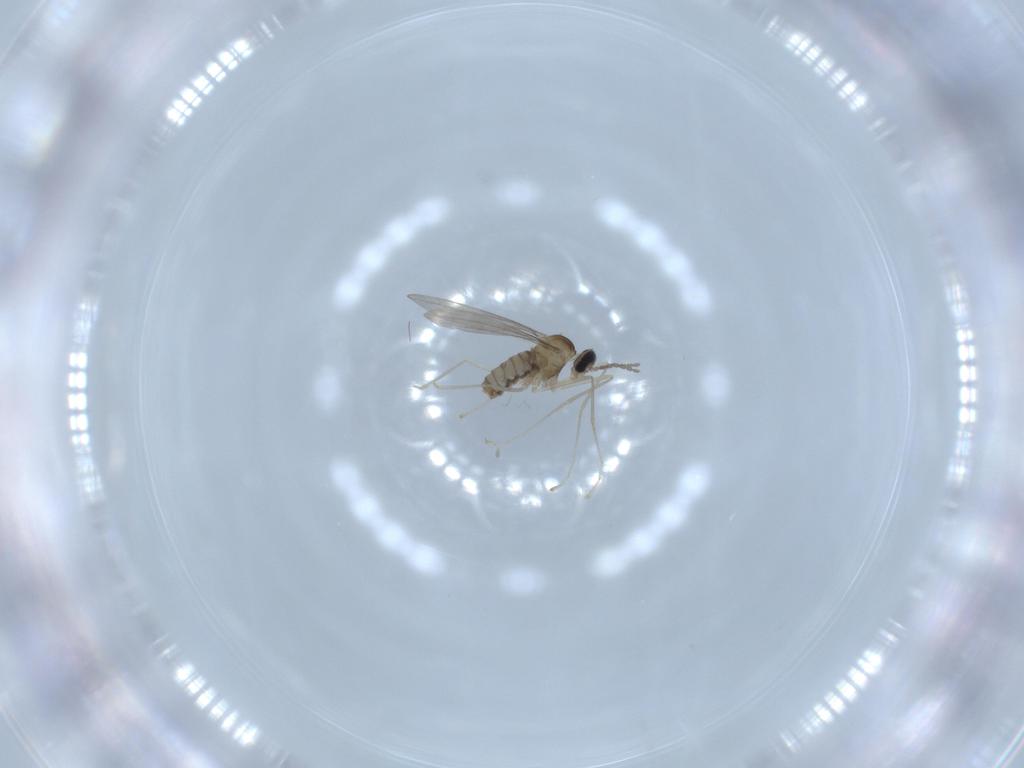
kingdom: Animalia
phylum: Arthropoda
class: Insecta
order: Diptera
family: Cecidomyiidae
